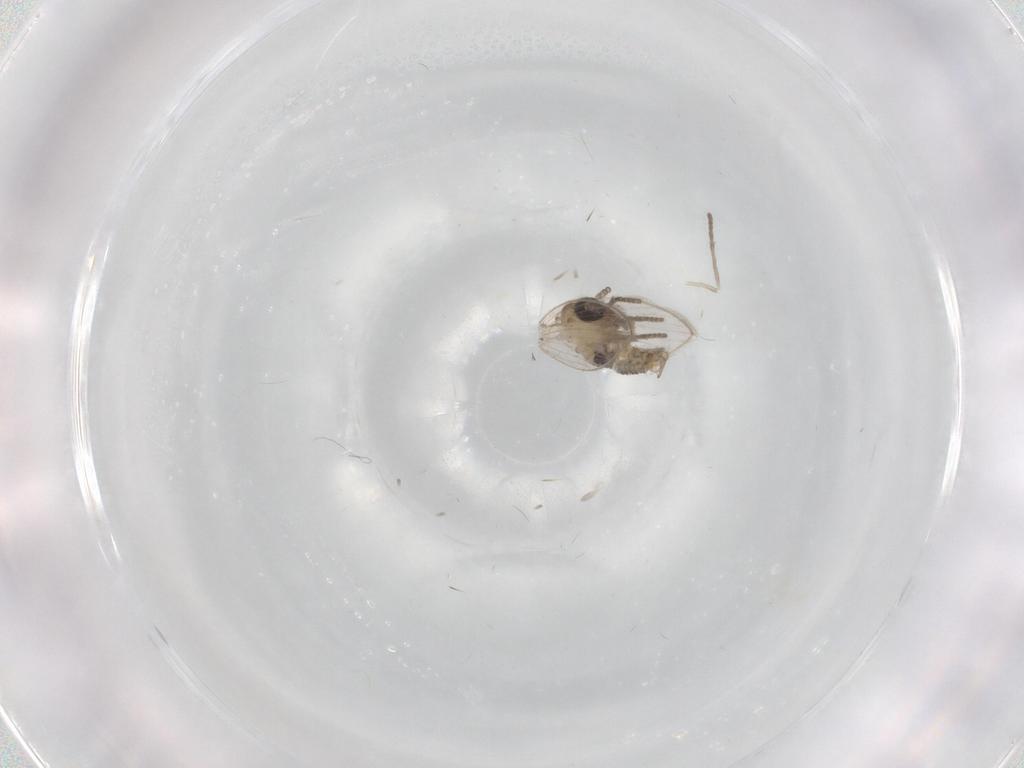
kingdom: Animalia
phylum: Arthropoda
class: Insecta
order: Diptera
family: Psychodidae
